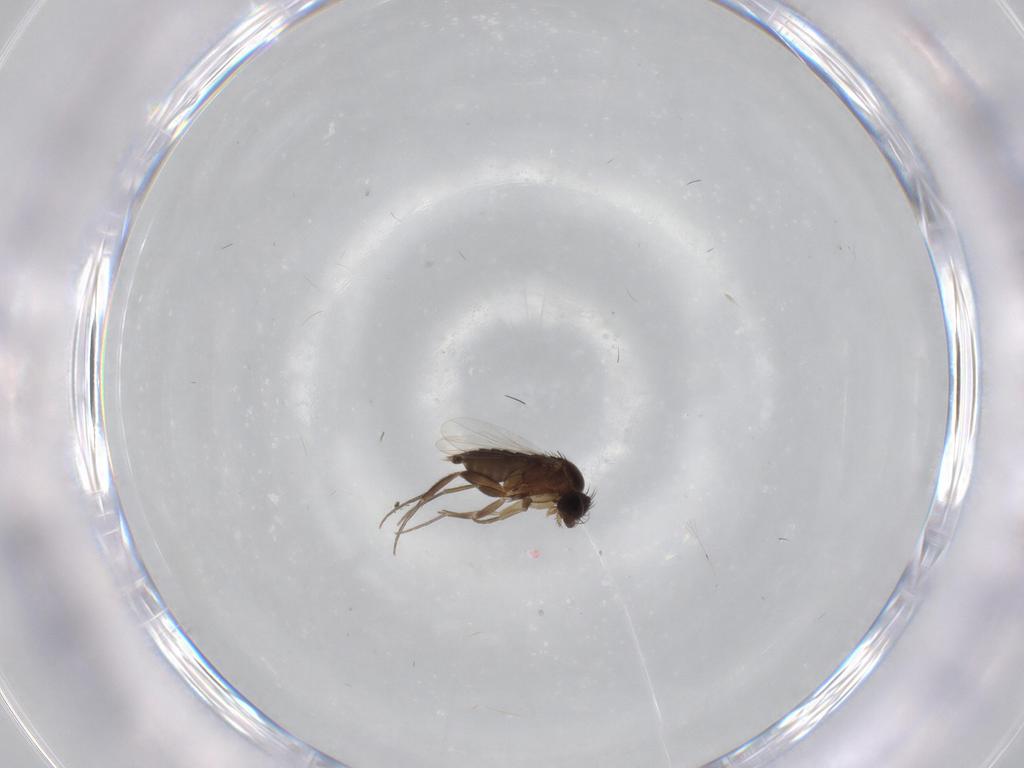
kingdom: Animalia
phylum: Arthropoda
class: Insecta
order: Diptera
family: Phoridae
